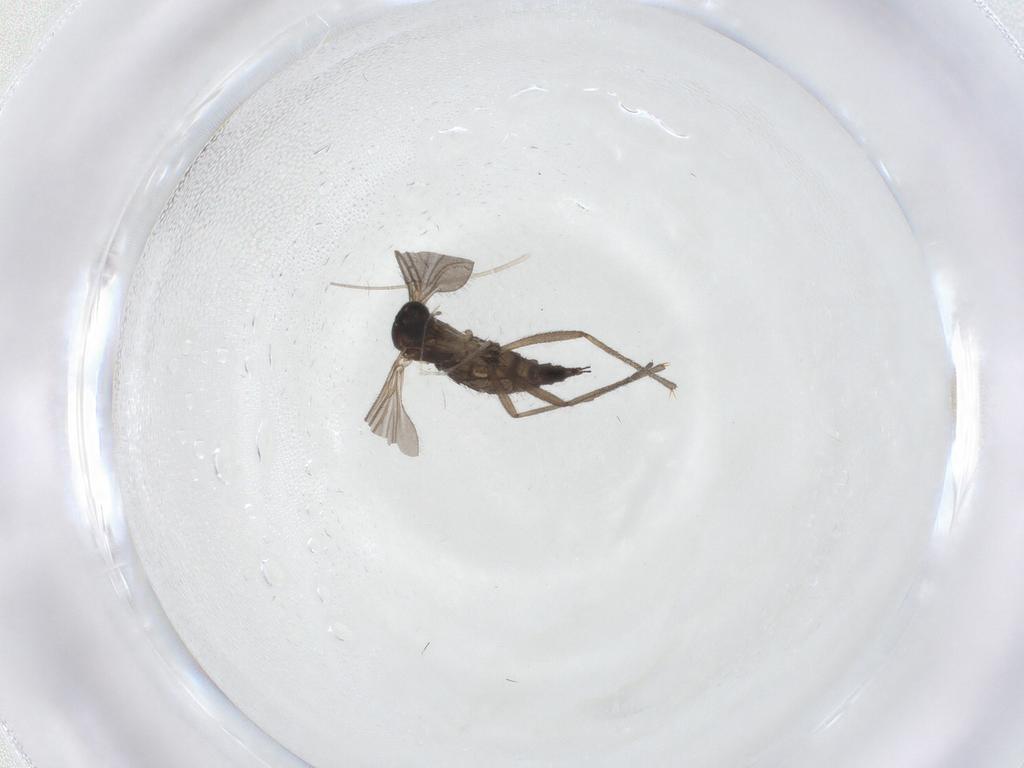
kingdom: Animalia
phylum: Arthropoda
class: Insecta
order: Diptera
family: Sciaridae
